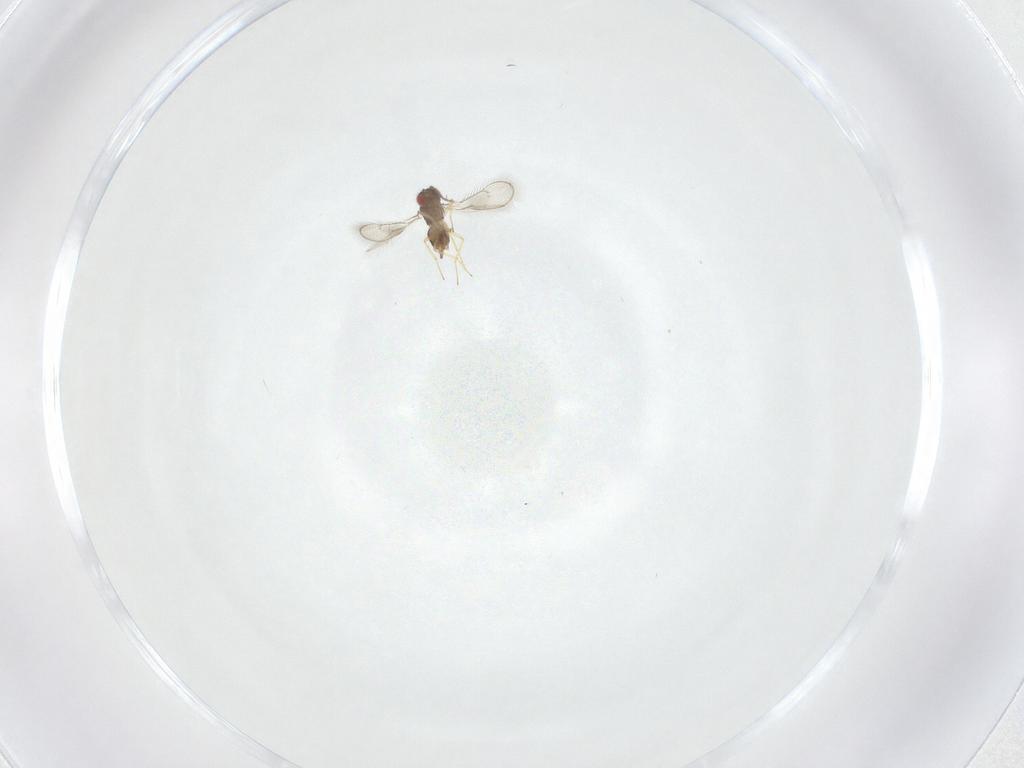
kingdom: Animalia
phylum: Arthropoda
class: Insecta
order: Hymenoptera
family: Eulophidae
